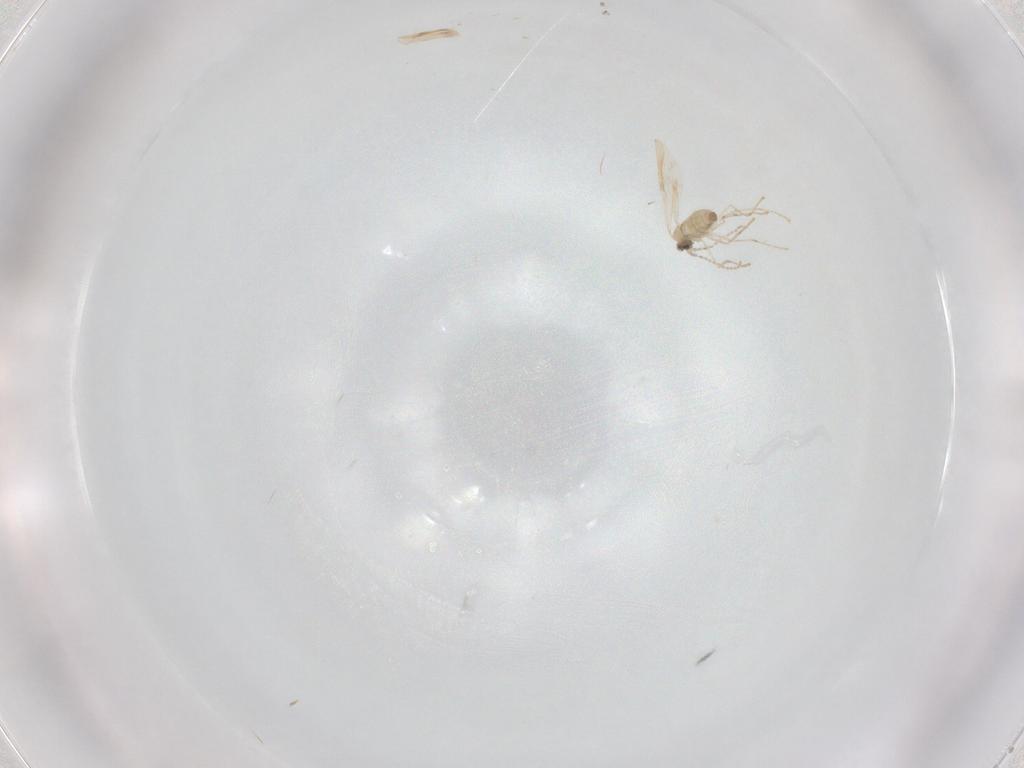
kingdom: Animalia
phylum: Arthropoda
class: Insecta
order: Diptera
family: Cecidomyiidae
